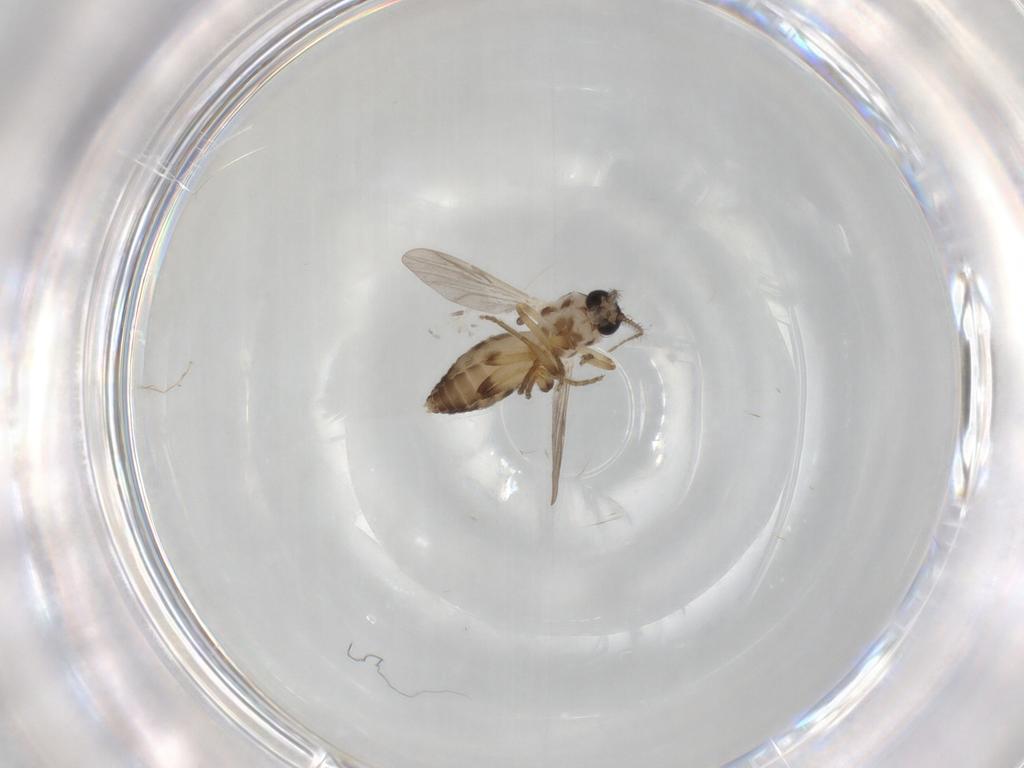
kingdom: Animalia
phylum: Arthropoda
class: Insecta
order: Diptera
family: Ceratopogonidae
